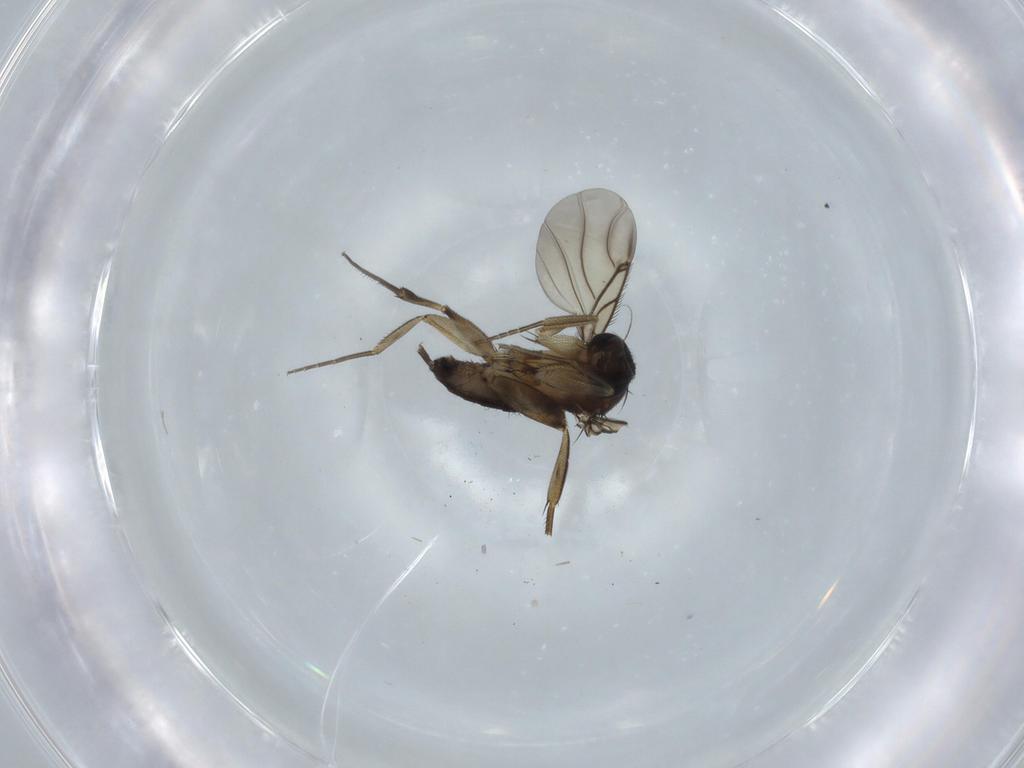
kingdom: Animalia
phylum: Arthropoda
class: Insecta
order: Diptera
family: Phoridae
